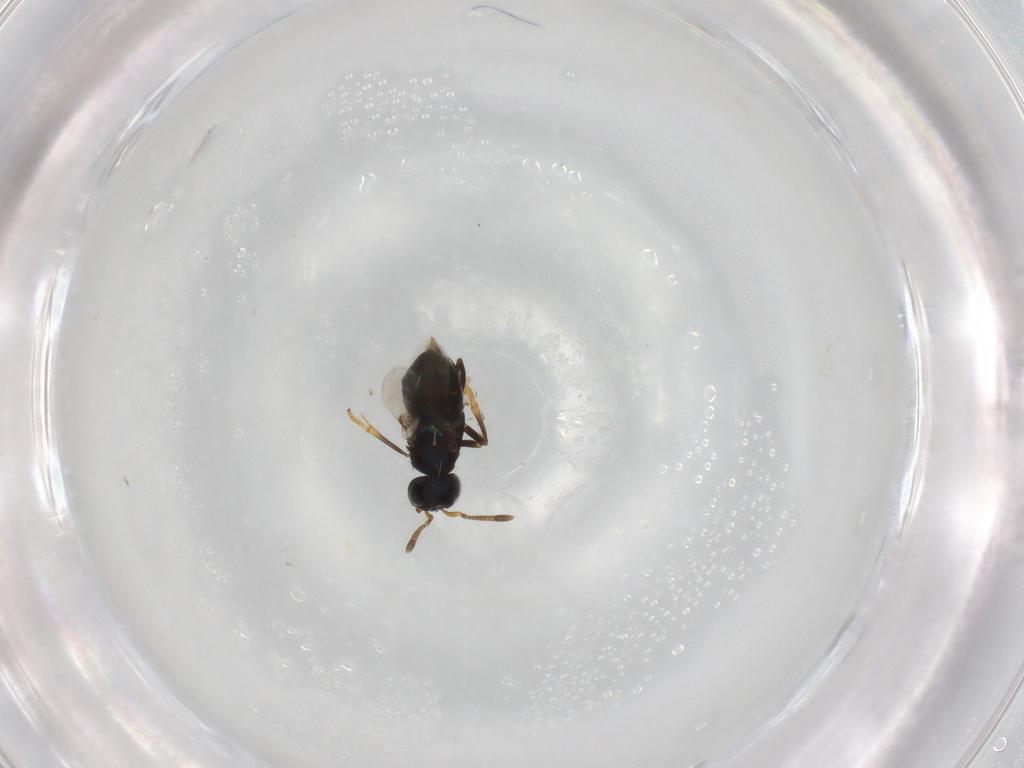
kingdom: Animalia
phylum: Arthropoda
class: Insecta
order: Hymenoptera
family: Encyrtidae
